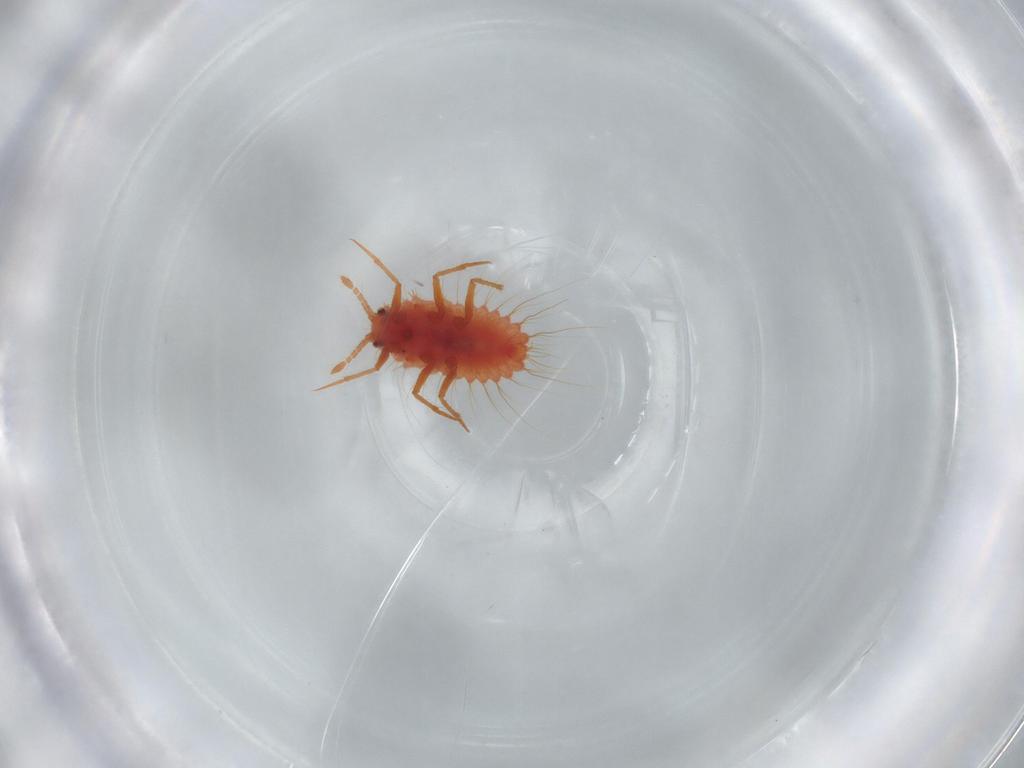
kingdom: Animalia
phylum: Arthropoda
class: Insecta
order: Hemiptera
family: Monophlebidae
